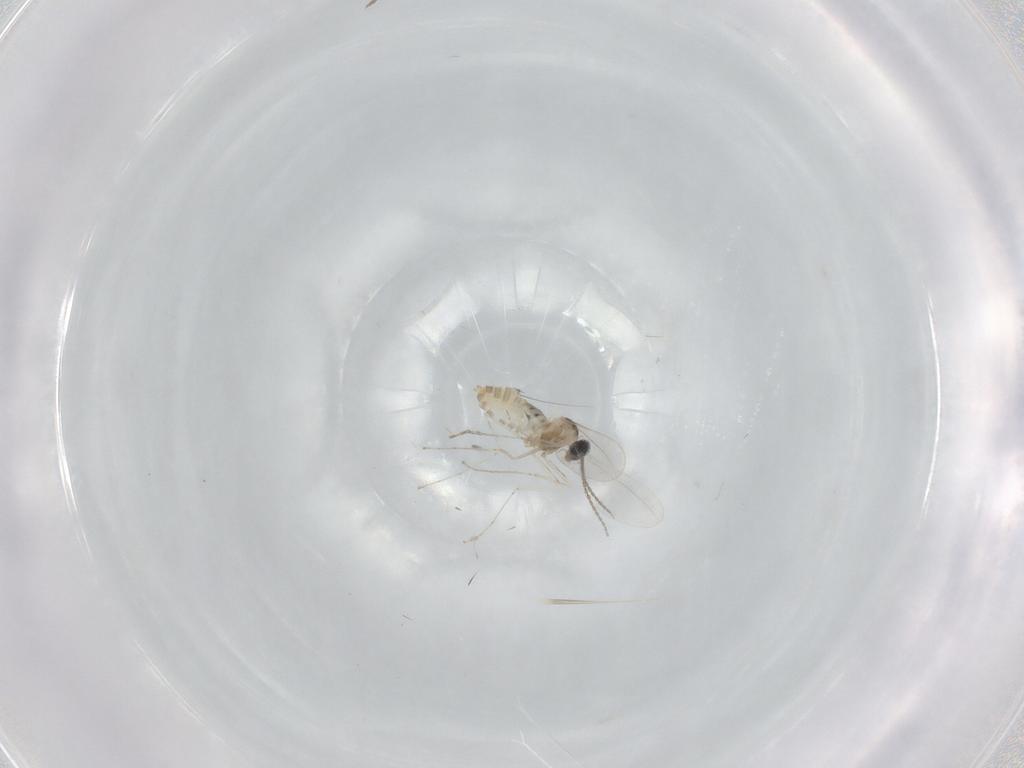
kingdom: Animalia
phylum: Arthropoda
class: Insecta
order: Diptera
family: Cecidomyiidae
